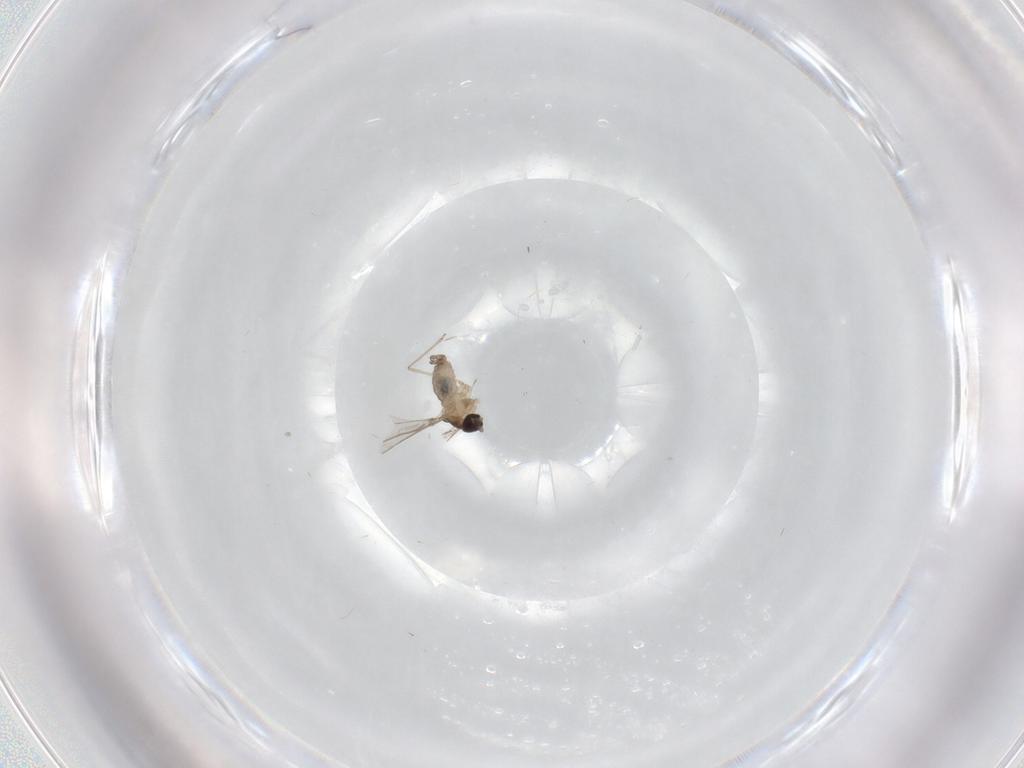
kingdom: Animalia
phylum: Arthropoda
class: Insecta
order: Diptera
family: Cecidomyiidae
